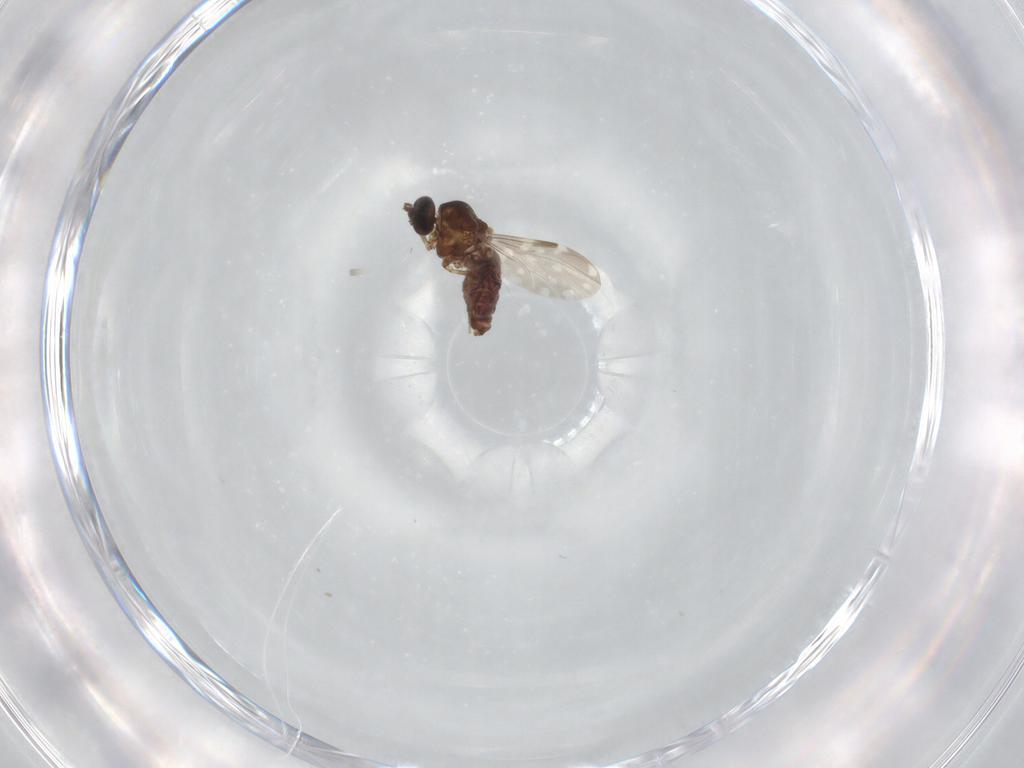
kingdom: Animalia
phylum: Arthropoda
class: Insecta
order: Diptera
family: Ceratopogonidae
